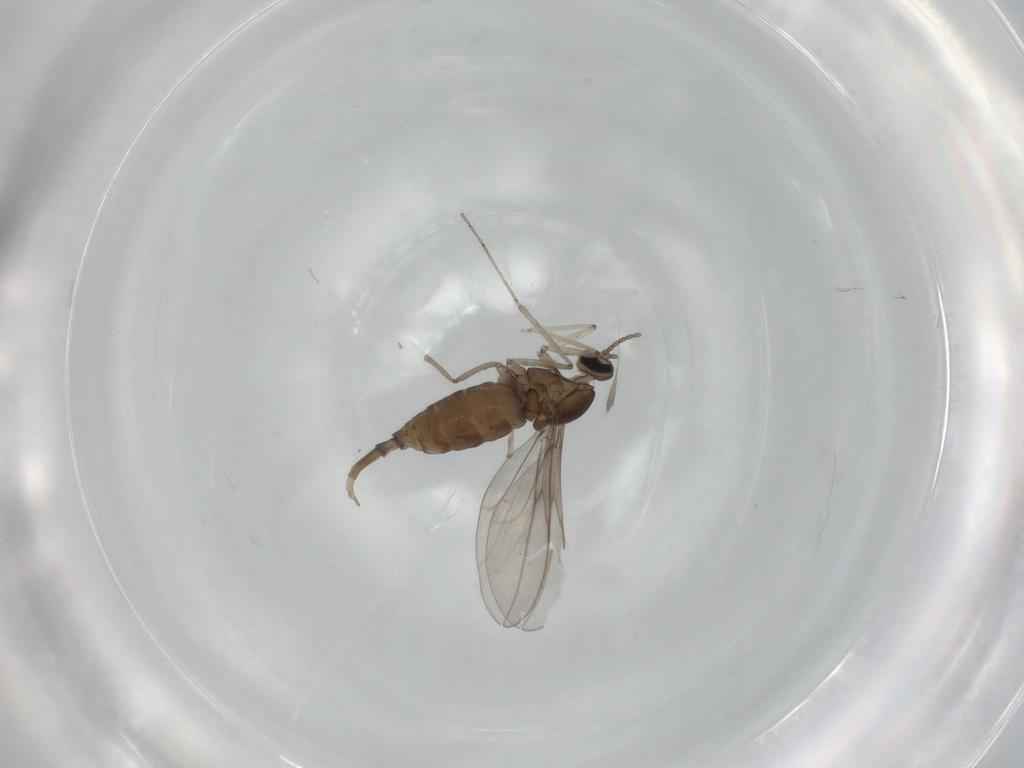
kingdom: Animalia
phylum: Arthropoda
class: Insecta
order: Diptera
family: Cecidomyiidae
